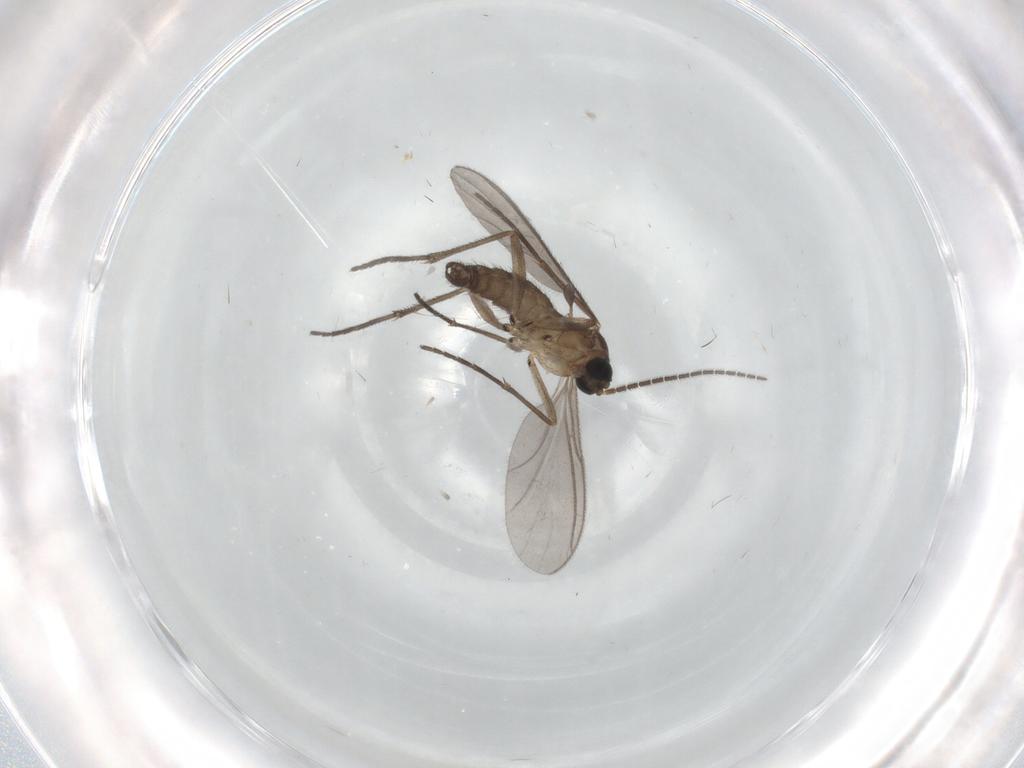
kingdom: Animalia
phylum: Arthropoda
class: Insecta
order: Diptera
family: Sciaridae
